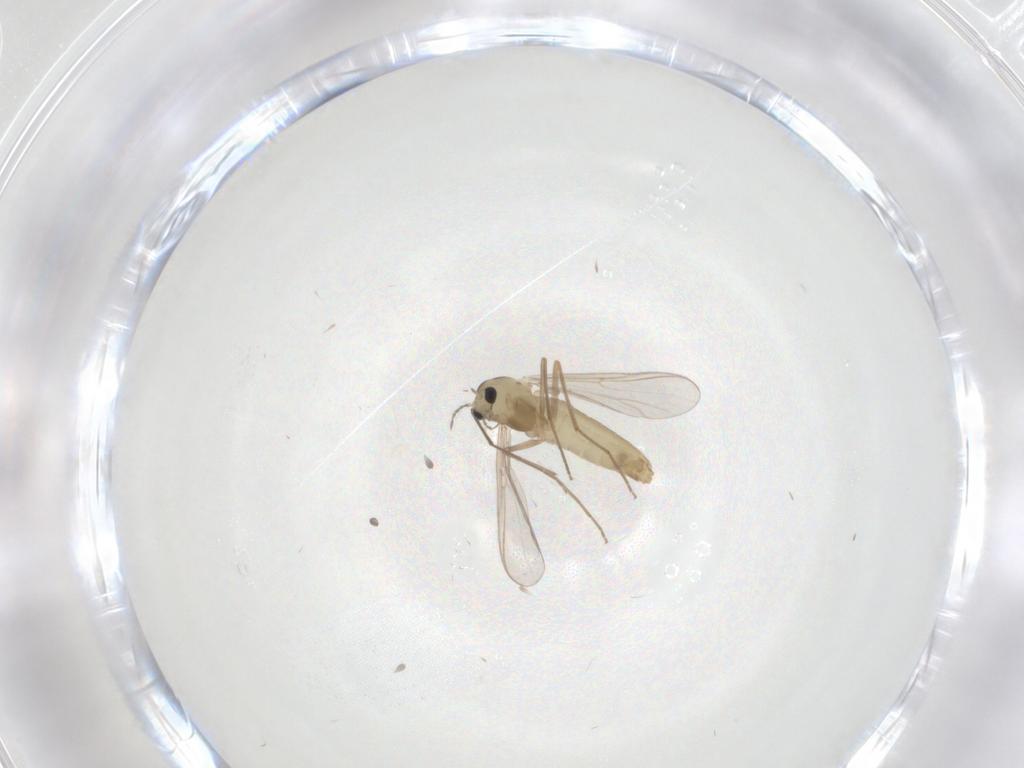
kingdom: Animalia
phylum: Arthropoda
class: Insecta
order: Diptera
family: Chironomidae
